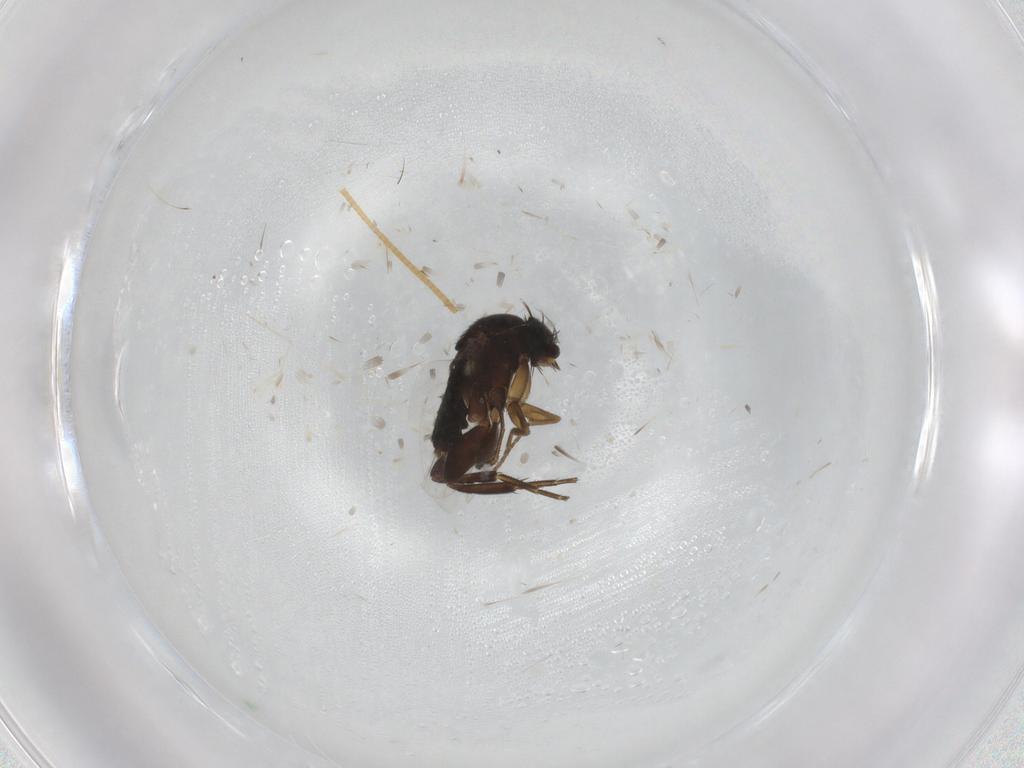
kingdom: Animalia
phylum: Arthropoda
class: Insecta
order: Diptera
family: Phoridae
